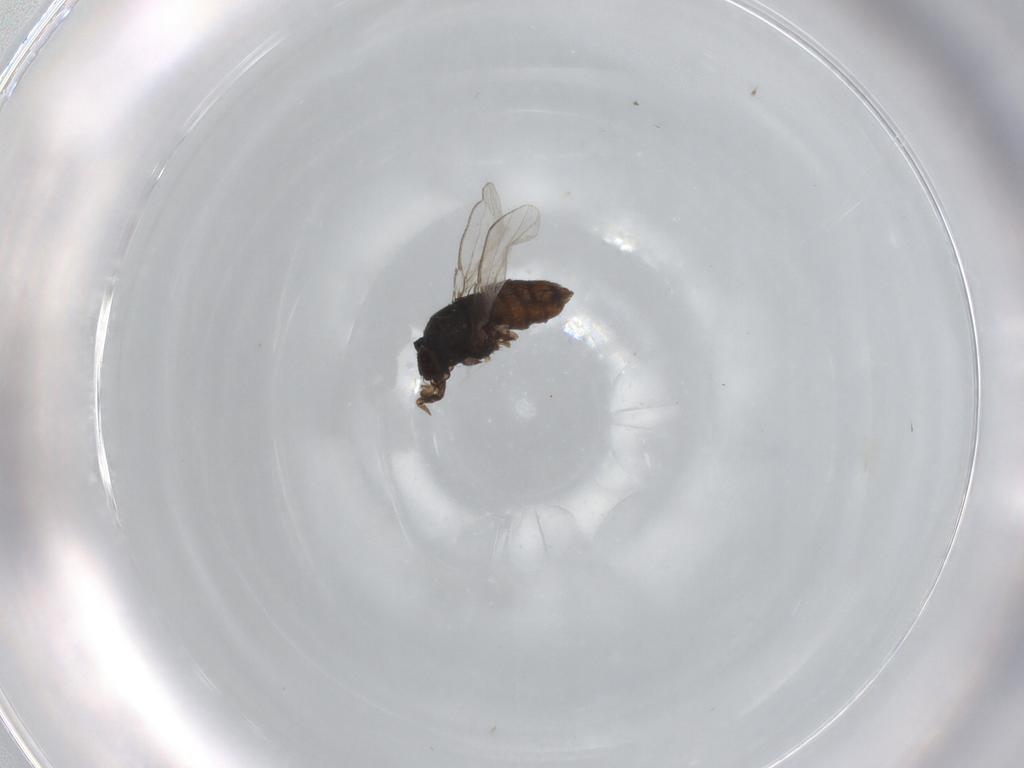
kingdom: Animalia
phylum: Arthropoda
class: Insecta
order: Diptera
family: Milichiidae
